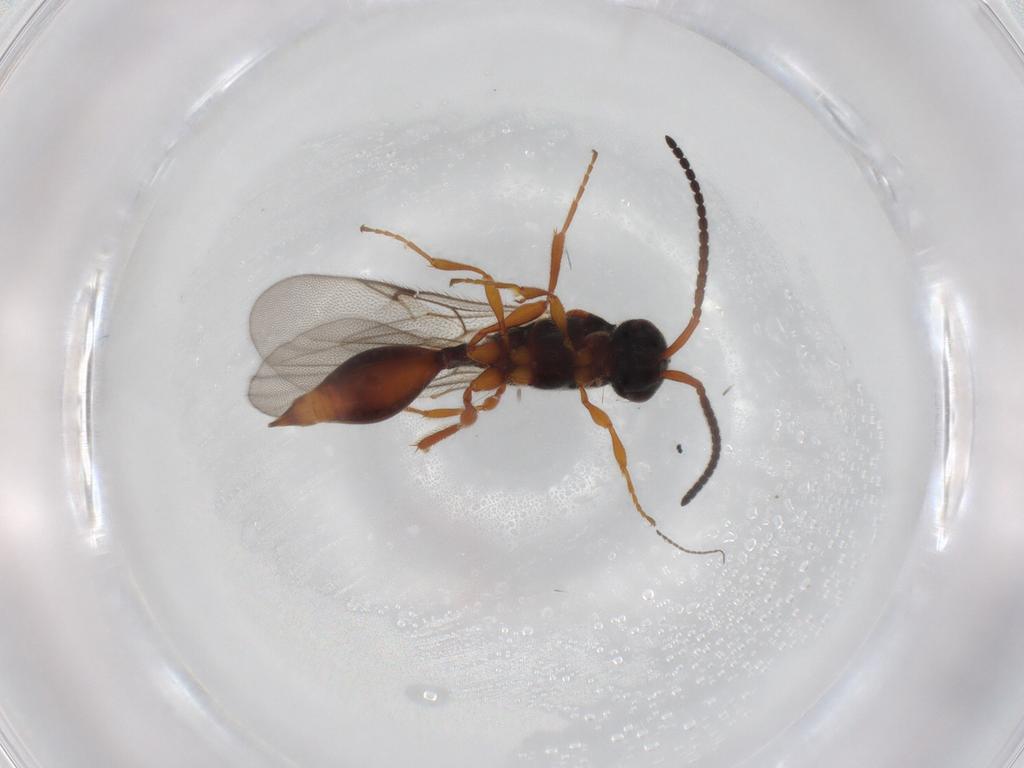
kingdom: Animalia
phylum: Arthropoda
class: Insecta
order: Hymenoptera
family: Diapriidae
